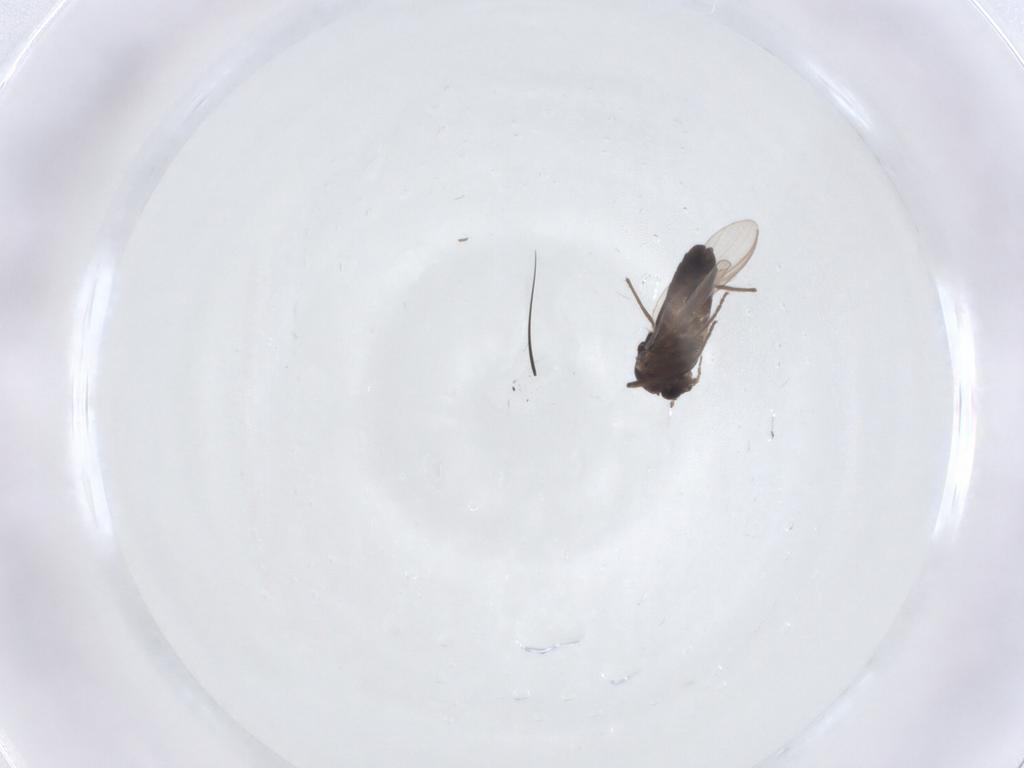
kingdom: Animalia
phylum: Arthropoda
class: Insecta
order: Diptera
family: Chironomidae
